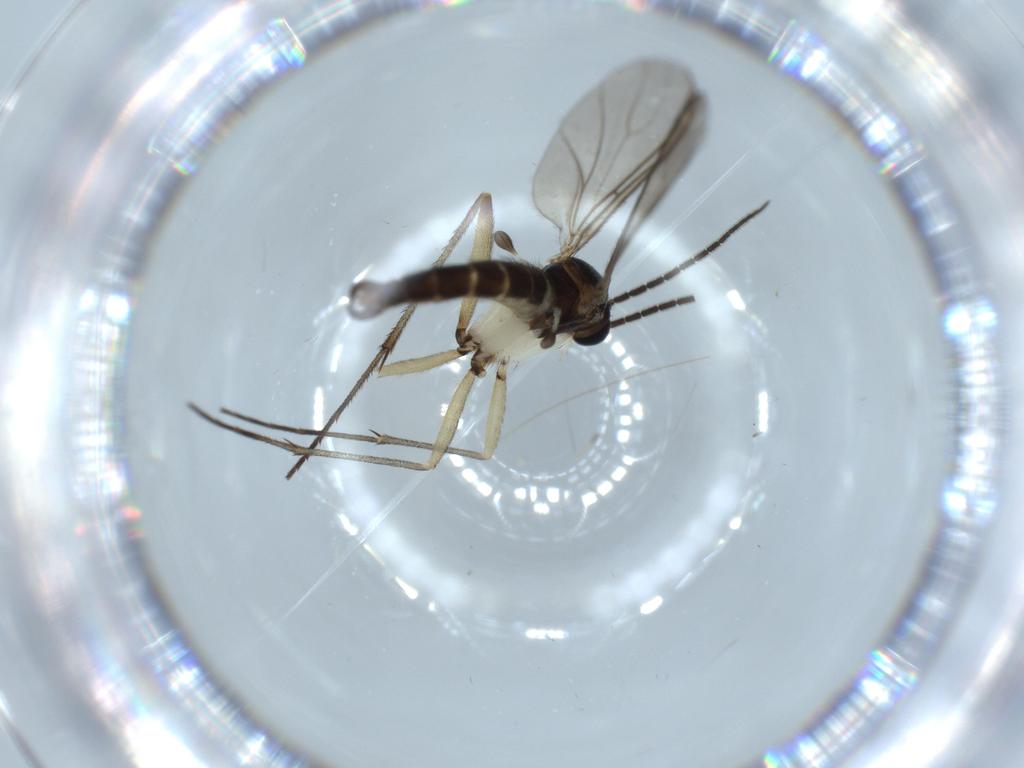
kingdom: Animalia
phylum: Arthropoda
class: Insecta
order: Diptera
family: Sciaridae
